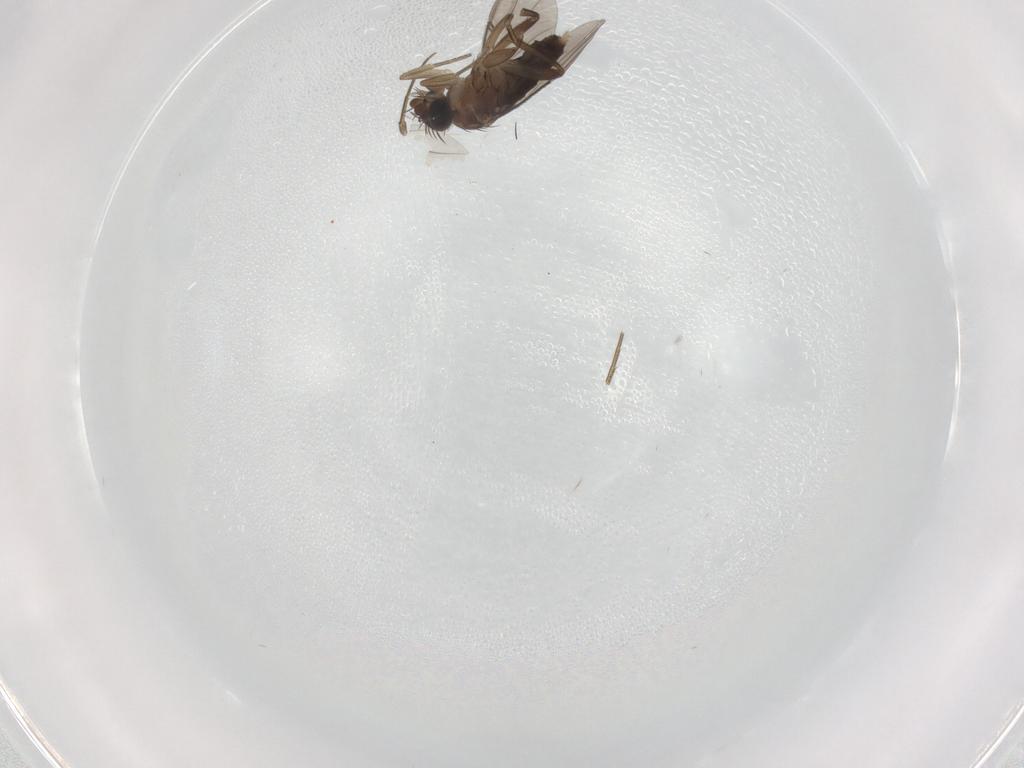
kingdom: Animalia
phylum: Arthropoda
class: Insecta
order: Diptera
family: Phoridae
